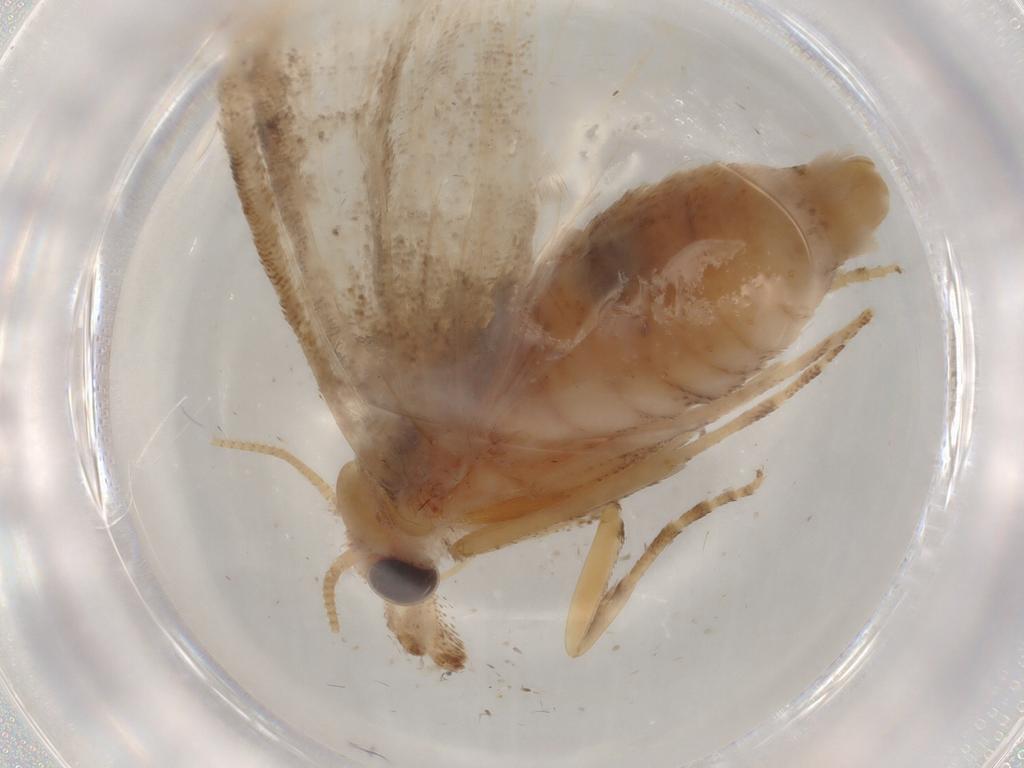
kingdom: Animalia
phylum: Arthropoda
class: Insecta
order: Lepidoptera
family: Nolidae
